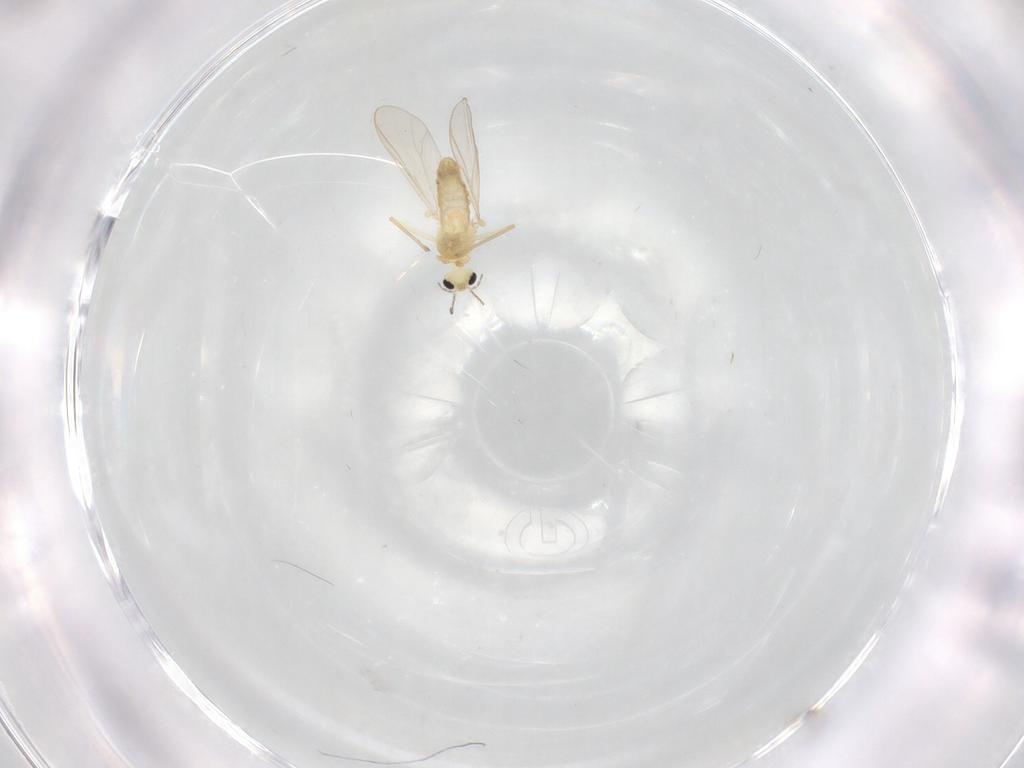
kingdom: Animalia
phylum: Arthropoda
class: Insecta
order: Diptera
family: Chironomidae
